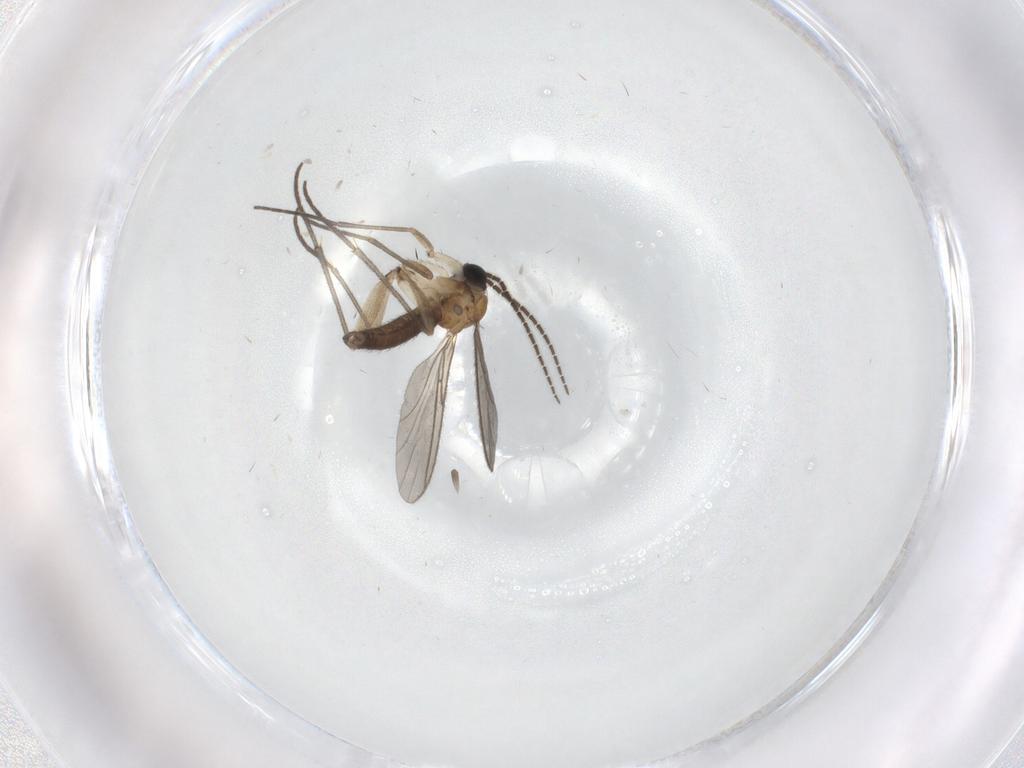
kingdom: Animalia
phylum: Arthropoda
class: Insecta
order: Diptera
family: Sciaridae
